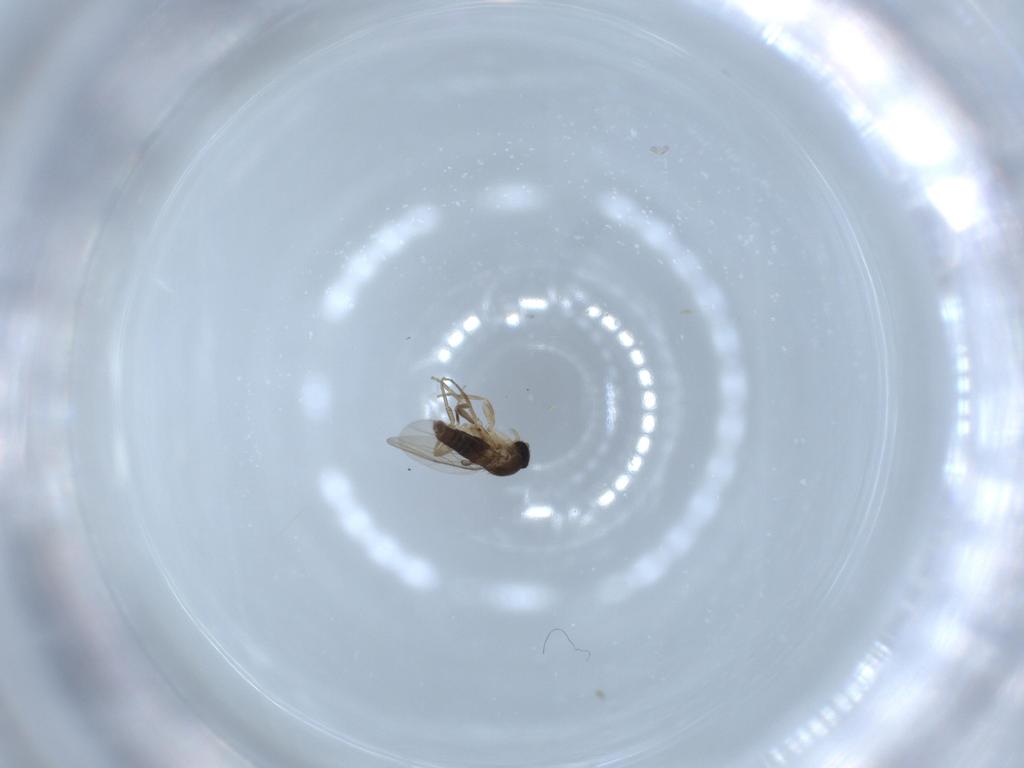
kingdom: Animalia
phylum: Arthropoda
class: Insecta
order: Diptera
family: Phoridae
